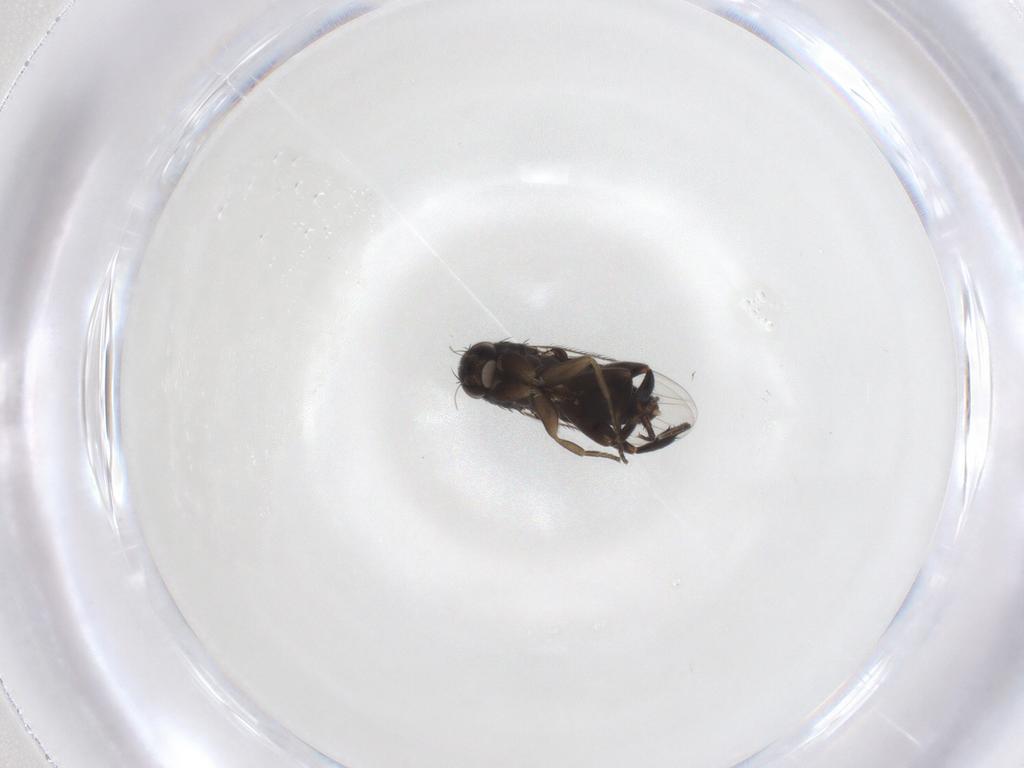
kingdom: Animalia
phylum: Arthropoda
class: Insecta
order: Diptera
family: Phoridae
